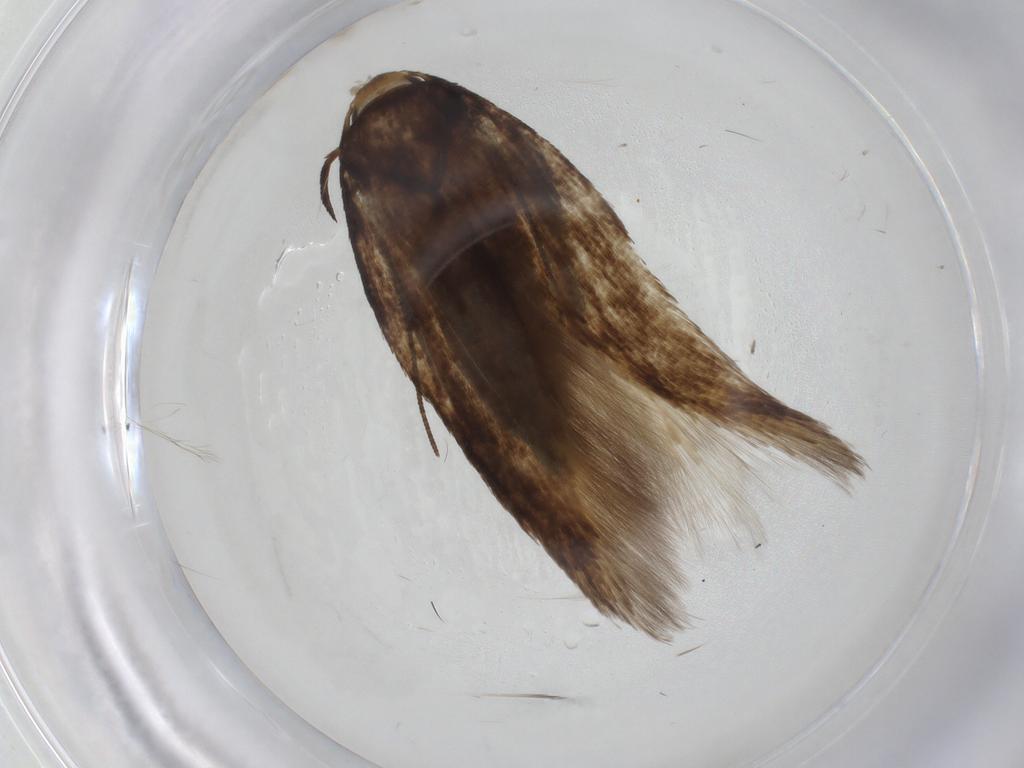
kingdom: Animalia
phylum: Arthropoda
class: Insecta
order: Lepidoptera
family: Cosmopterigidae
